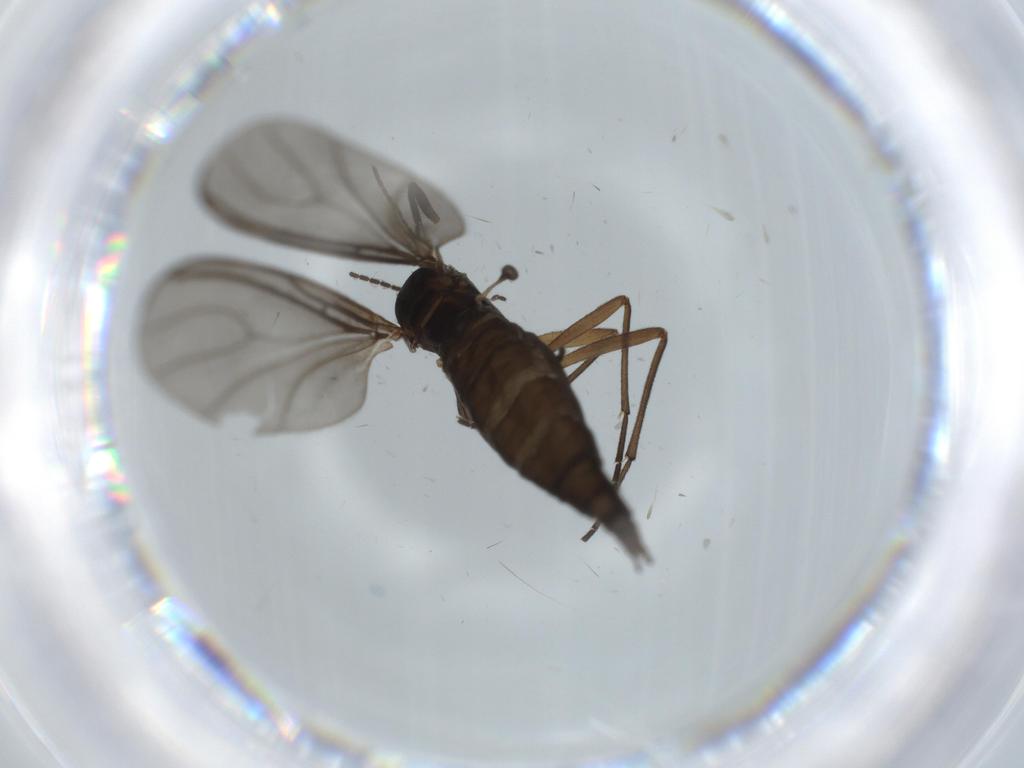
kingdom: Animalia
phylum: Arthropoda
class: Insecta
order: Diptera
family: Sciaridae
